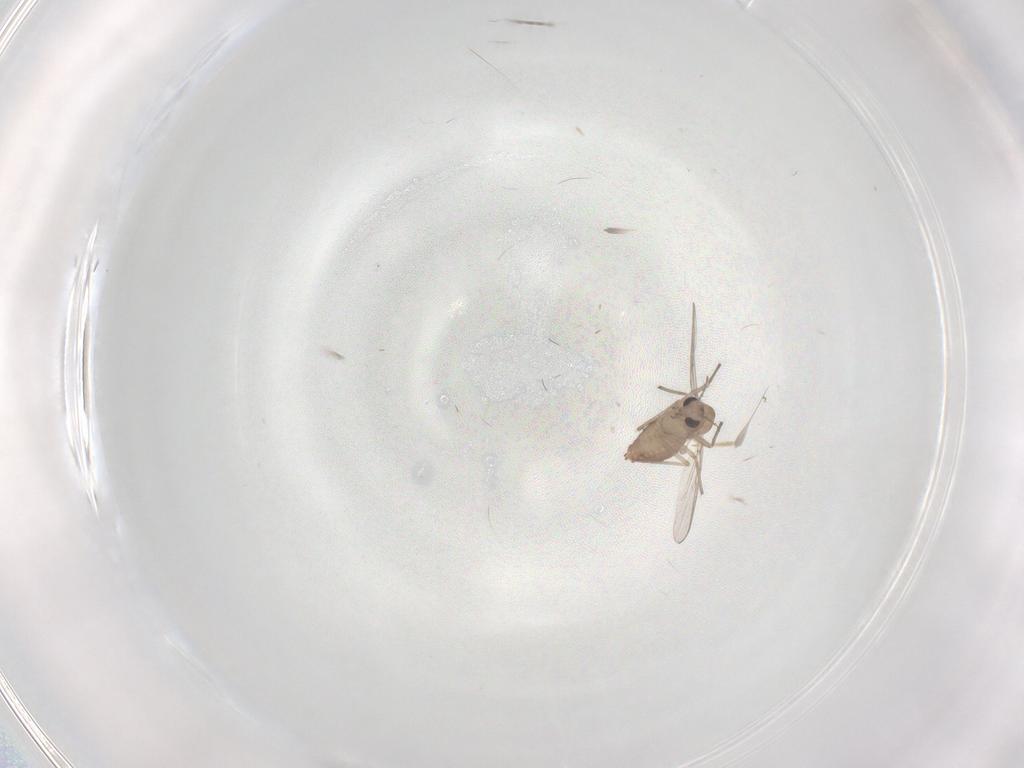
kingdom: Animalia
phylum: Arthropoda
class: Insecta
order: Diptera
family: Chironomidae
